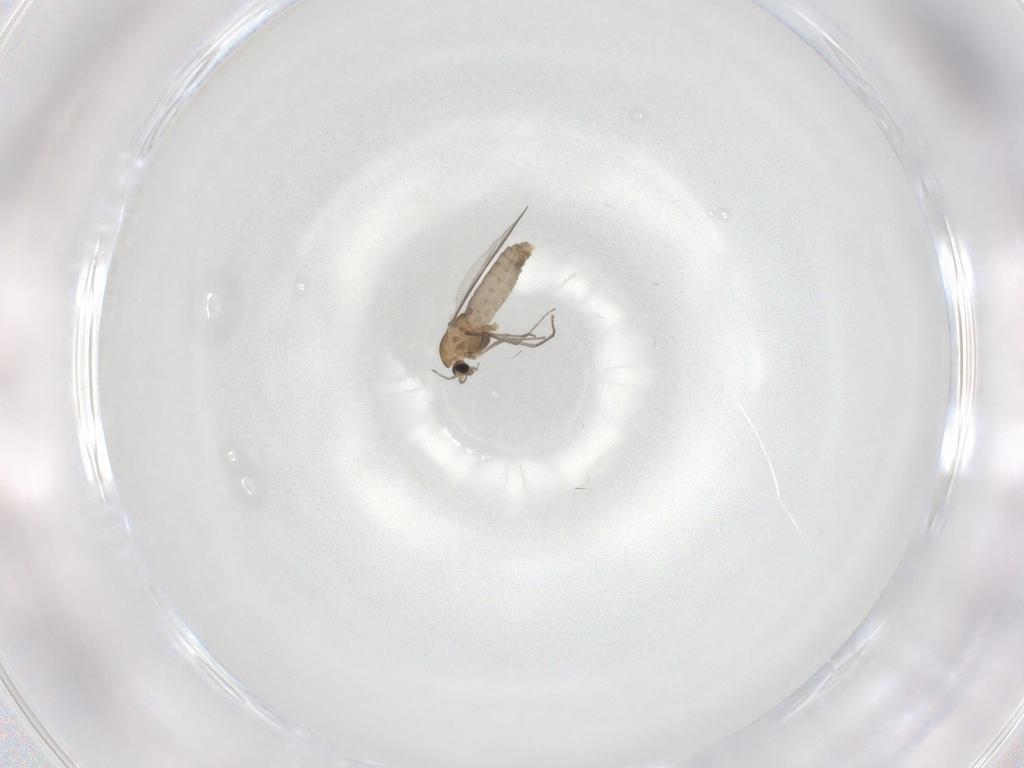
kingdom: Animalia
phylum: Arthropoda
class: Insecta
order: Diptera
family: Chironomidae
